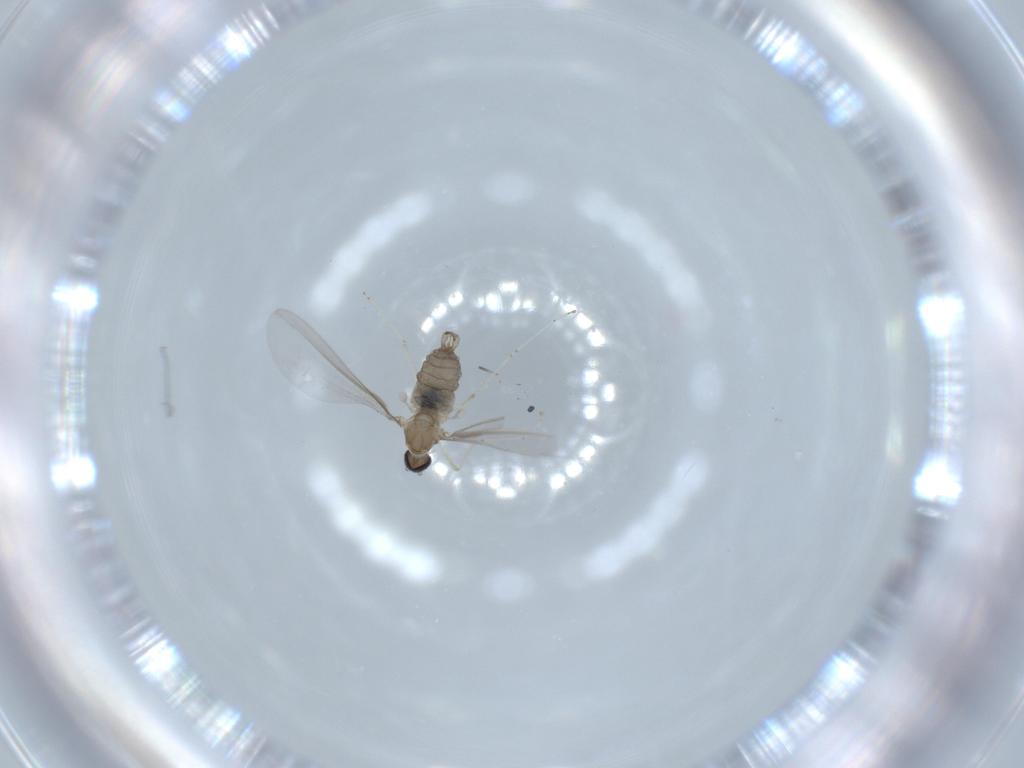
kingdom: Animalia
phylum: Arthropoda
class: Insecta
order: Diptera
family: Cecidomyiidae
